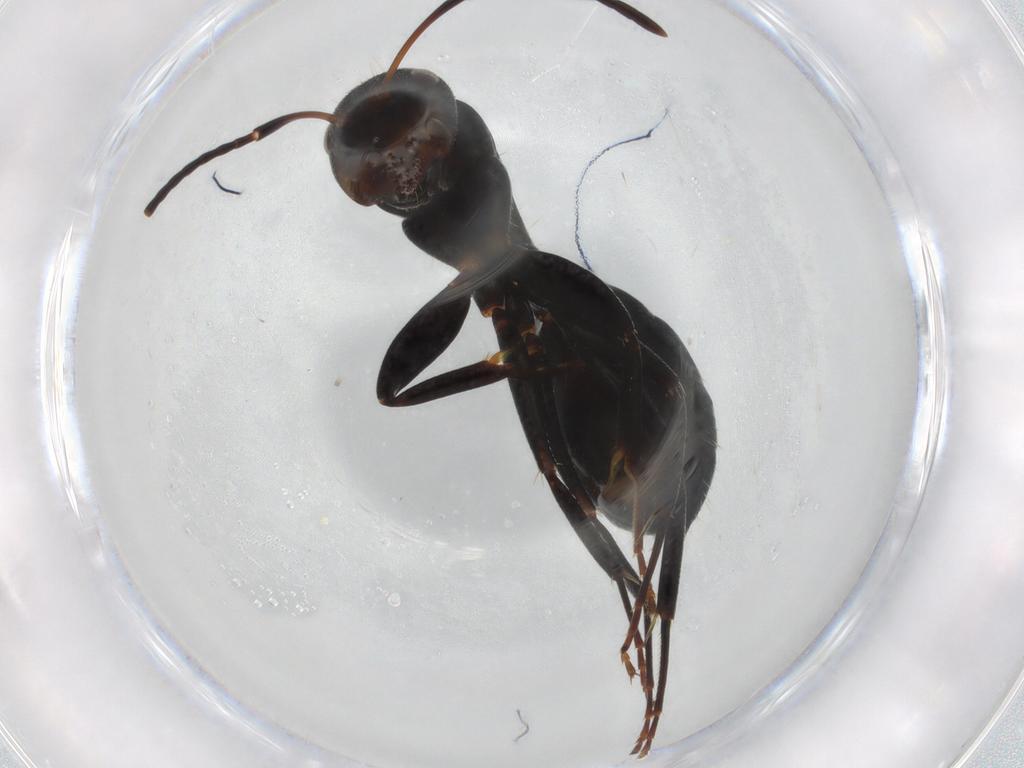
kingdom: Animalia
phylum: Arthropoda
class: Insecta
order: Hymenoptera
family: Formicidae
